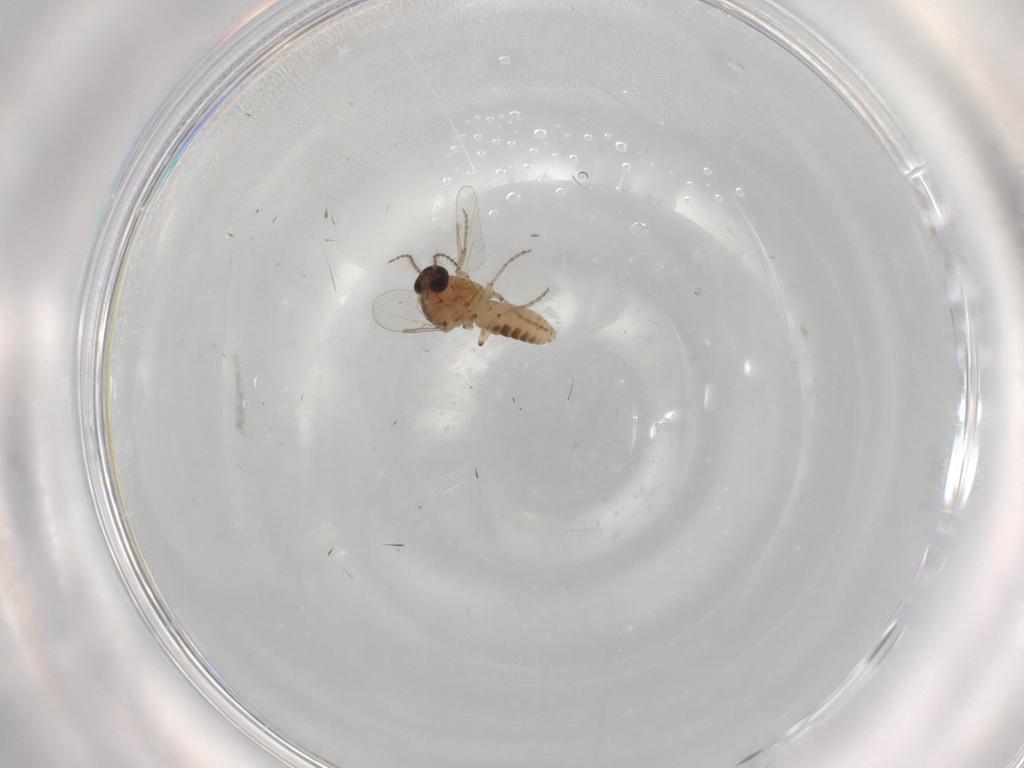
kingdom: Animalia
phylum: Arthropoda
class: Insecta
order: Diptera
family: Ceratopogonidae
